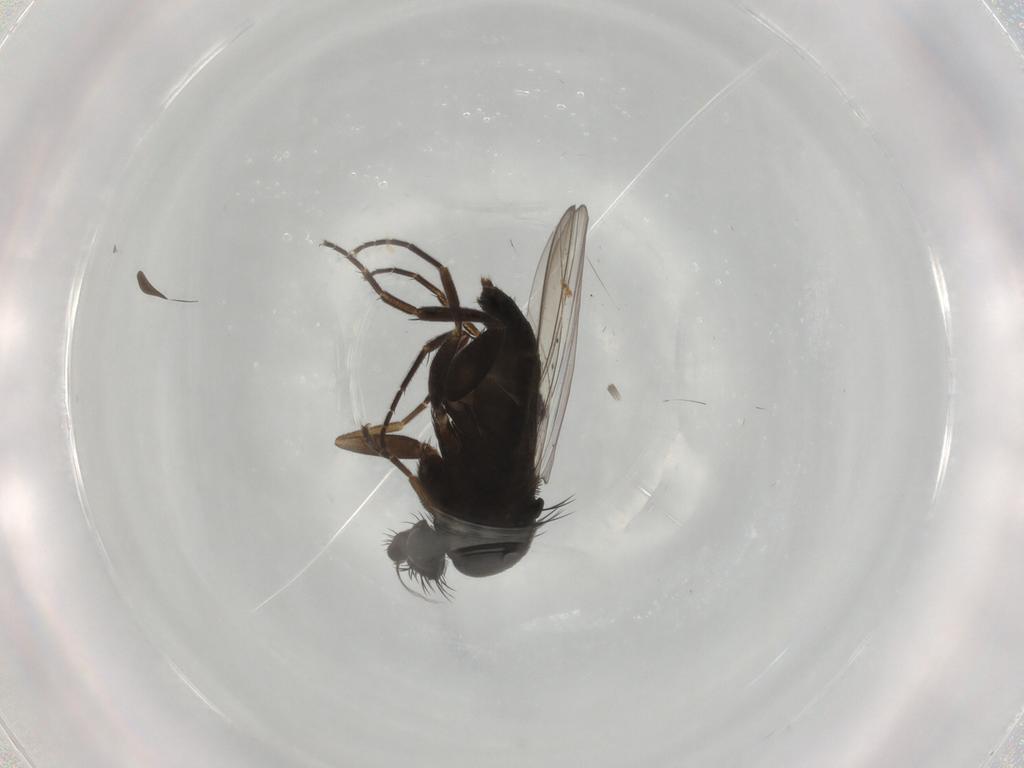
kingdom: Animalia
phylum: Arthropoda
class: Insecta
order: Diptera
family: Phoridae
